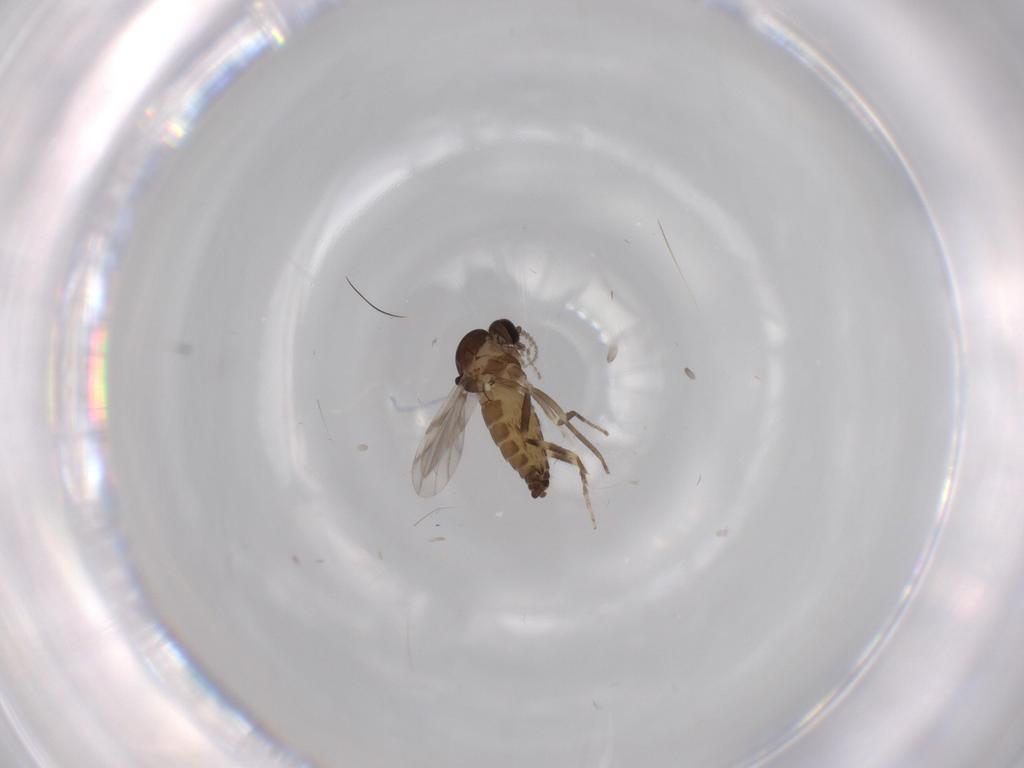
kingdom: Animalia
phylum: Arthropoda
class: Insecta
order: Diptera
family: Ceratopogonidae
